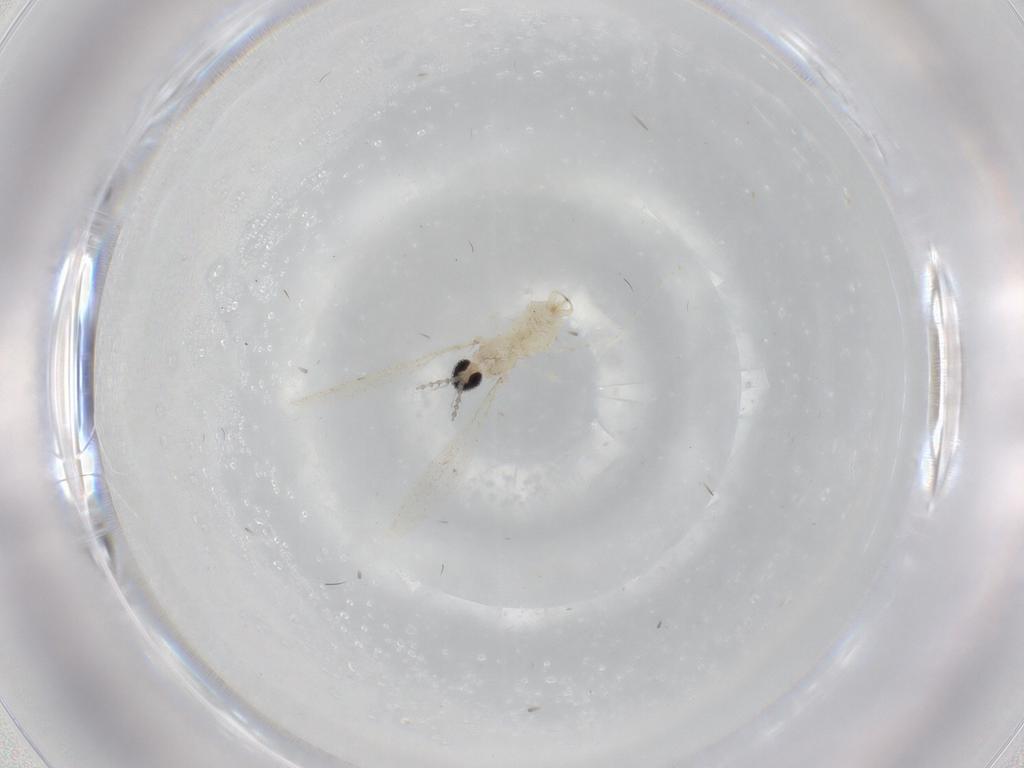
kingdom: Animalia
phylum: Arthropoda
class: Insecta
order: Diptera
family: Cecidomyiidae
